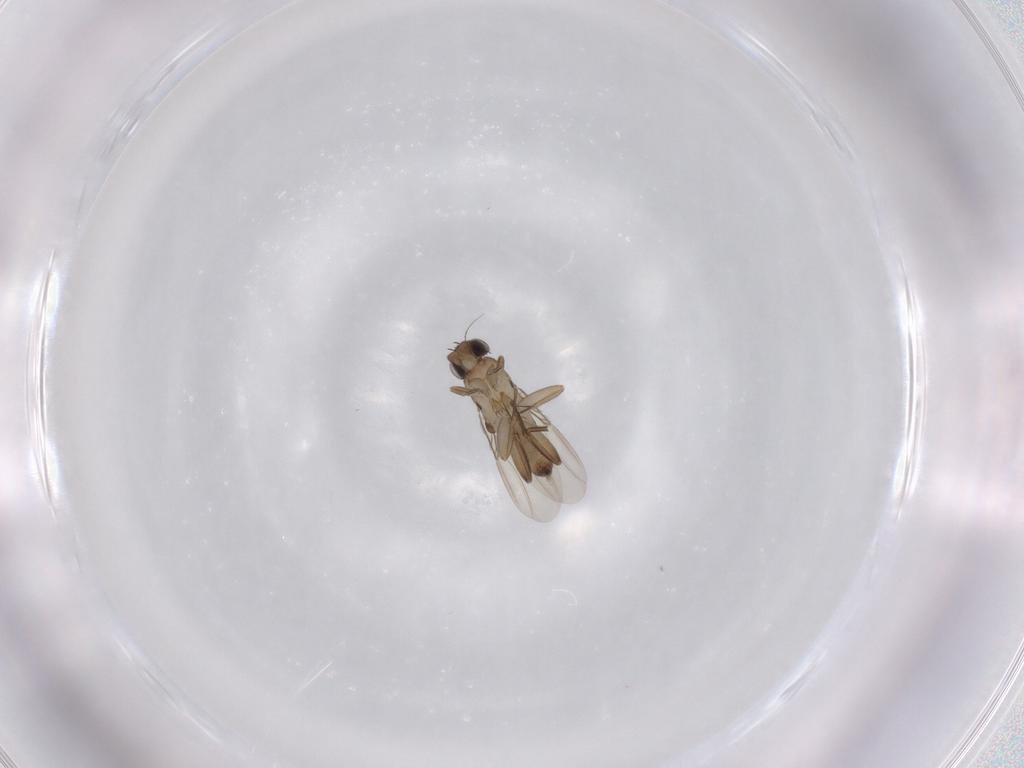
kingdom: Animalia
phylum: Arthropoda
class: Insecta
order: Diptera
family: Phoridae
